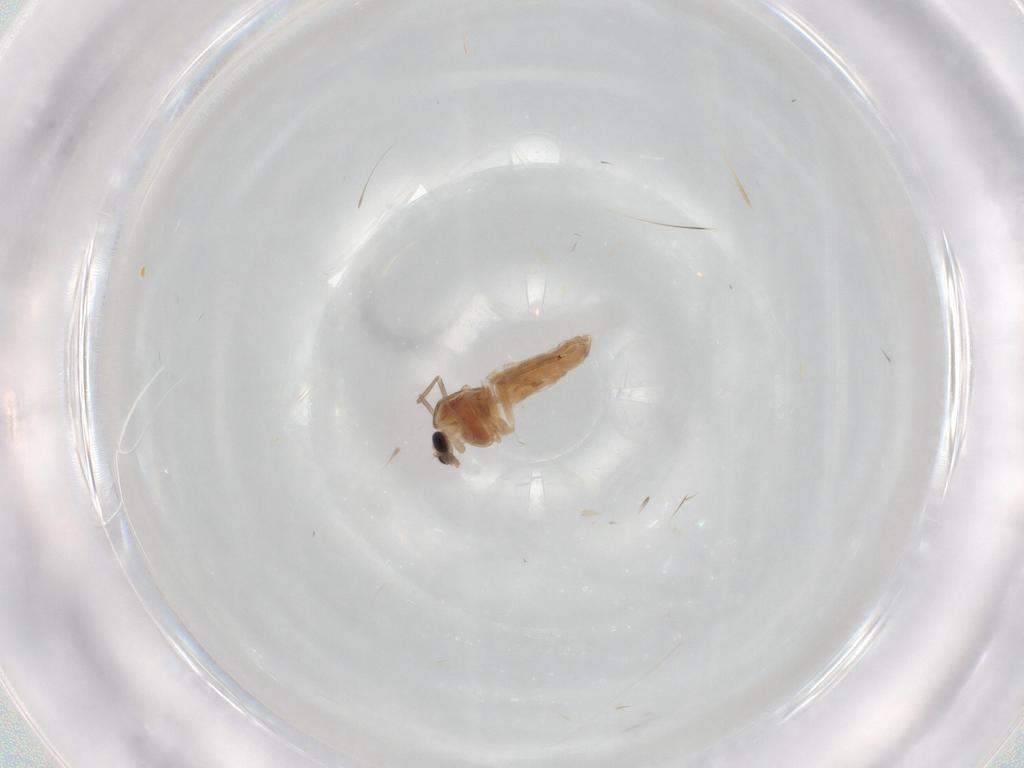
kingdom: Animalia
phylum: Arthropoda
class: Insecta
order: Diptera
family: Chironomidae
